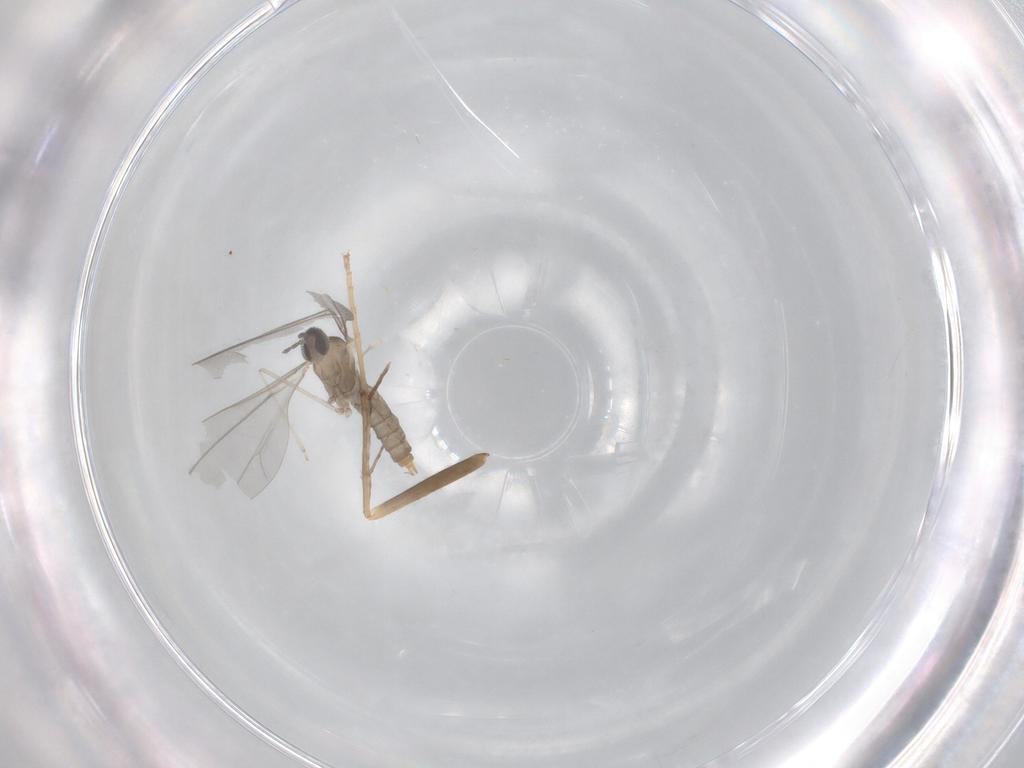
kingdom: Animalia
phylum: Arthropoda
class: Insecta
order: Diptera
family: Cecidomyiidae
